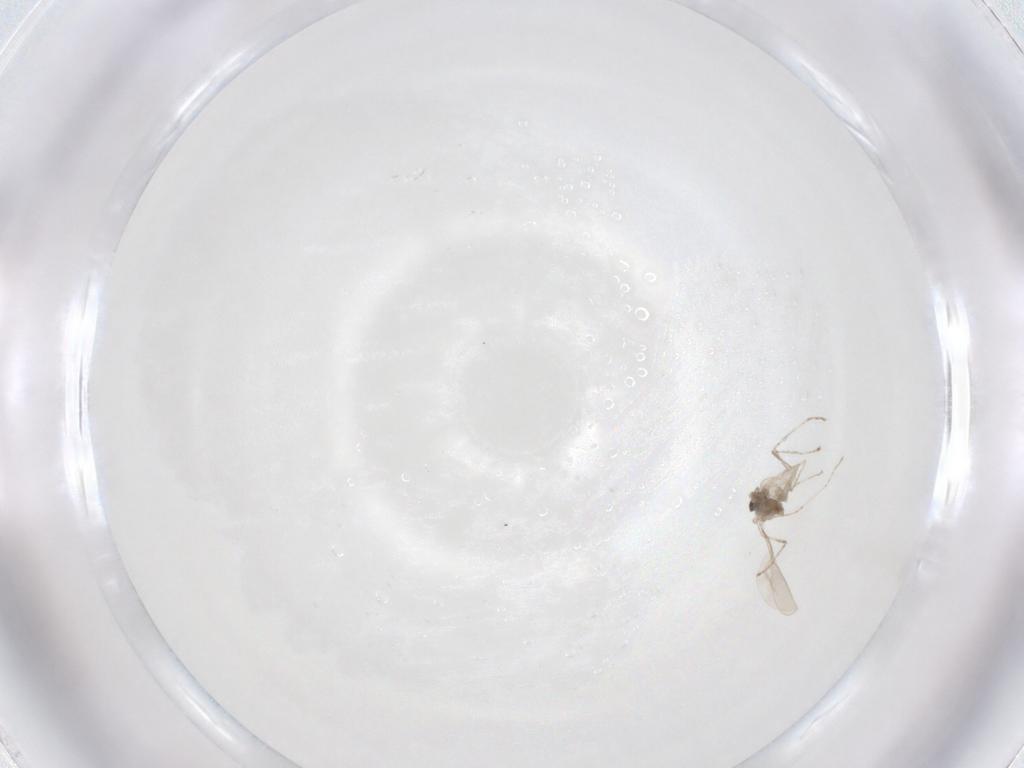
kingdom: Animalia
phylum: Arthropoda
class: Insecta
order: Diptera
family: Cecidomyiidae
